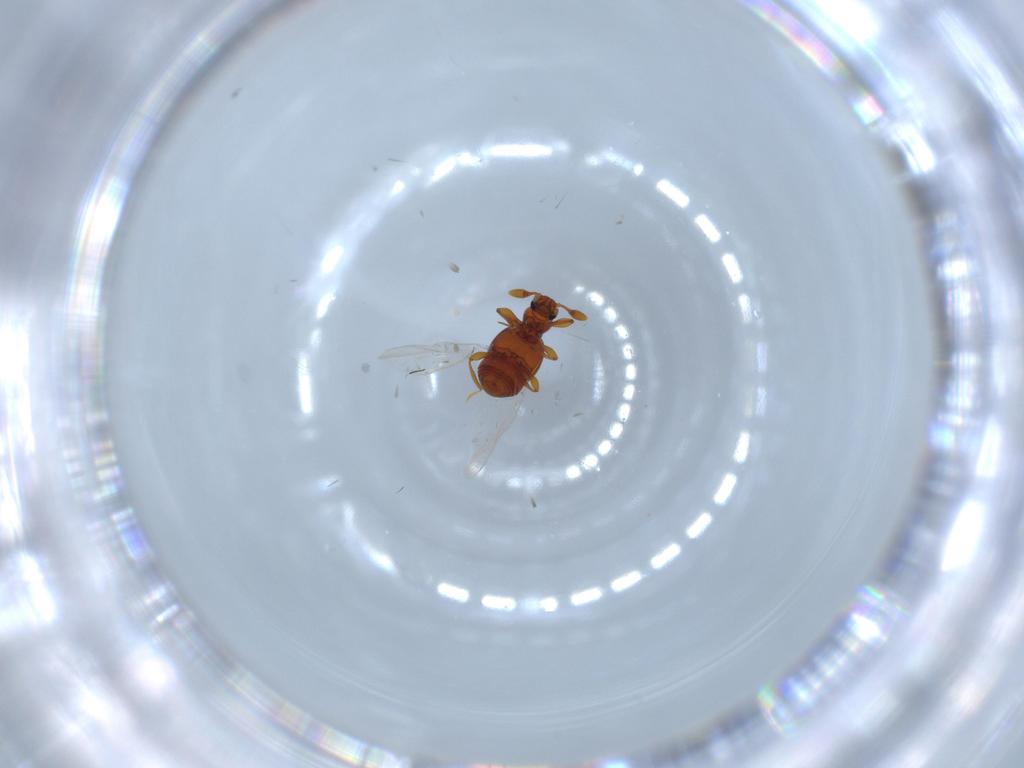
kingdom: Animalia
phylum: Arthropoda
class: Insecta
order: Coleoptera
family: Staphylinidae
